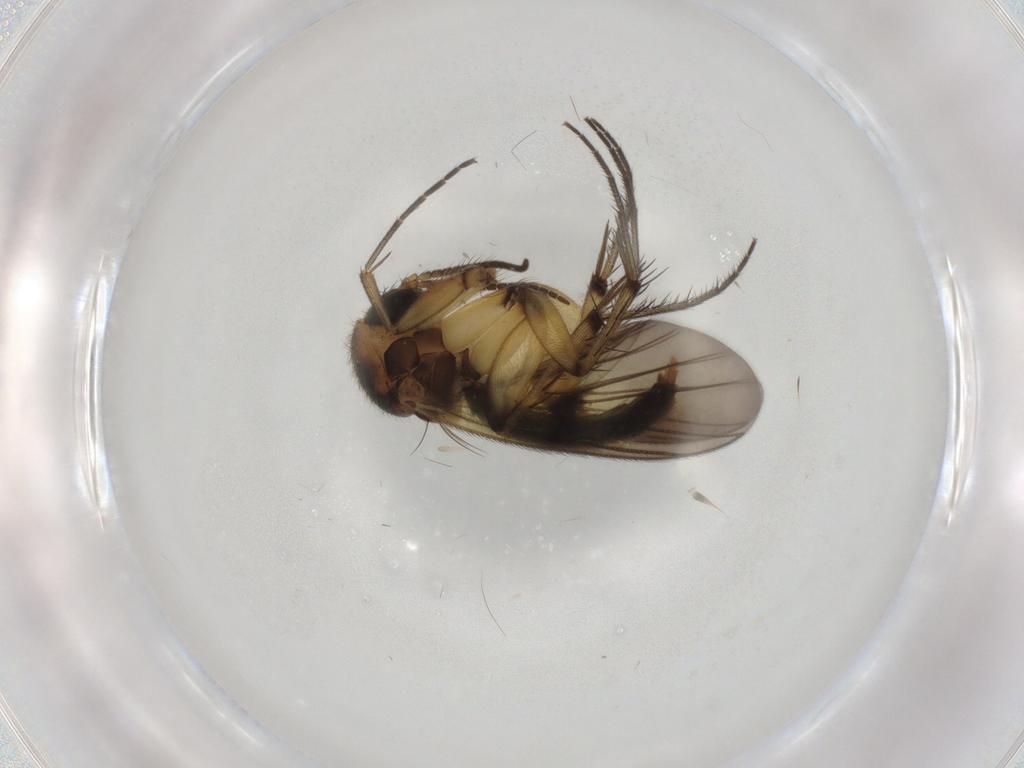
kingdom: Animalia
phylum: Arthropoda
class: Insecta
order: Diptera
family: Mycetophilidae
